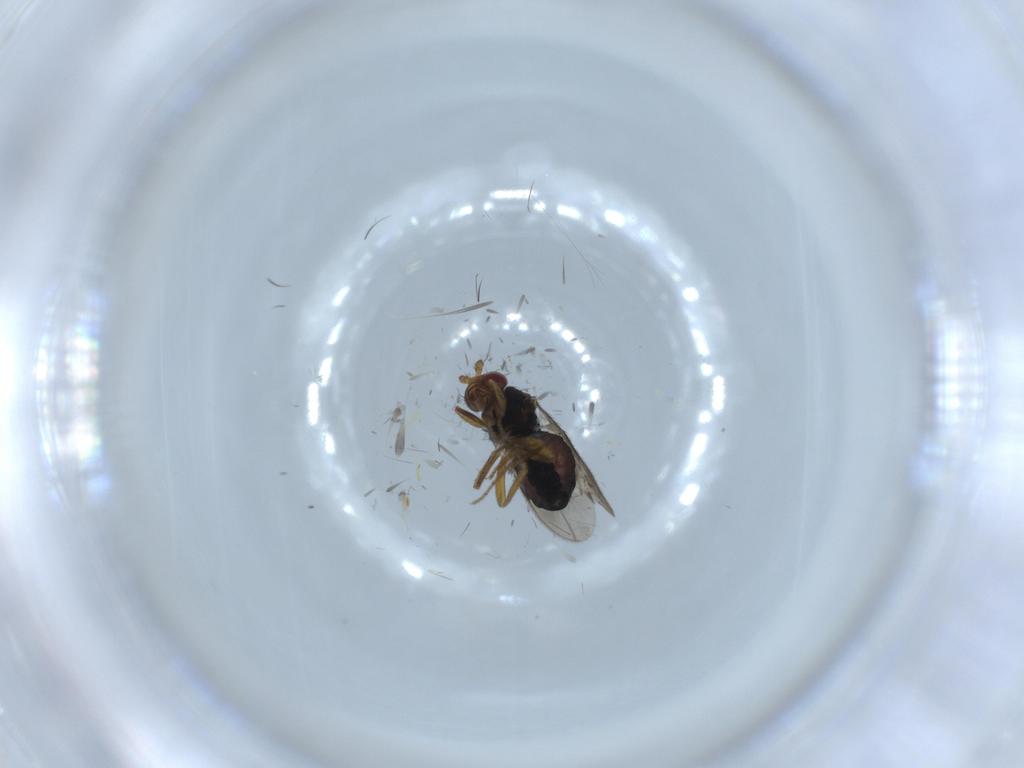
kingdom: Animalia
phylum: Arthropoda
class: Insecta
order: Diptera
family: Sphaeroceridae
